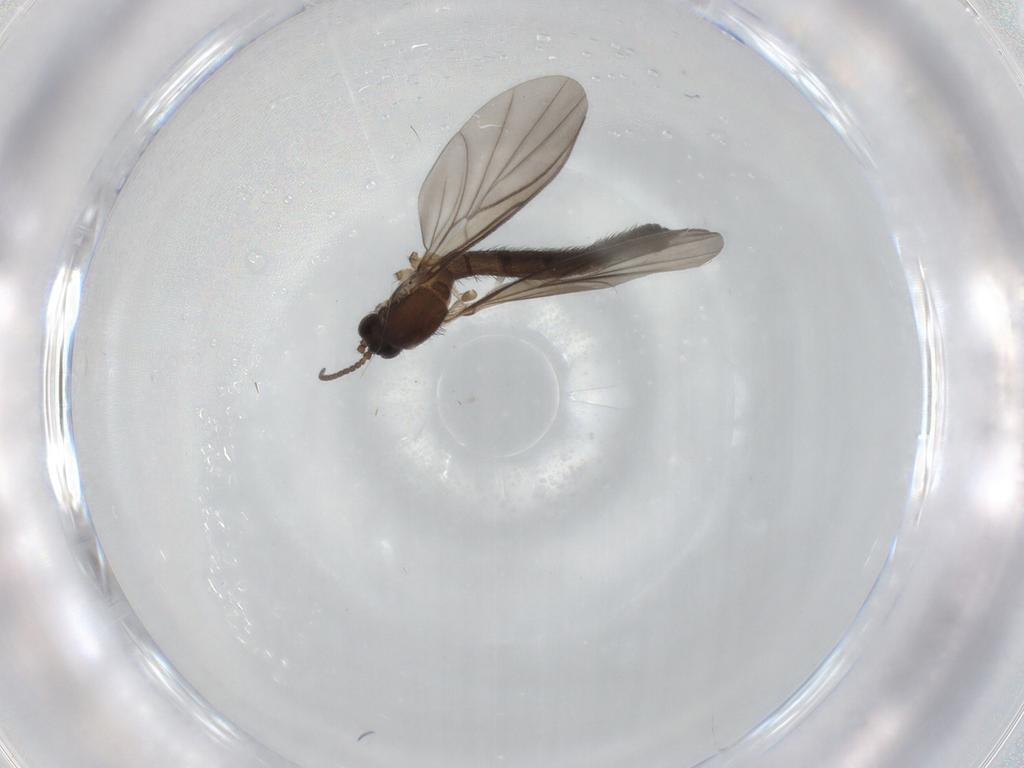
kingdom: Animalia
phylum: Arthropoda
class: Insecta
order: Diptera
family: Keroplatidae
